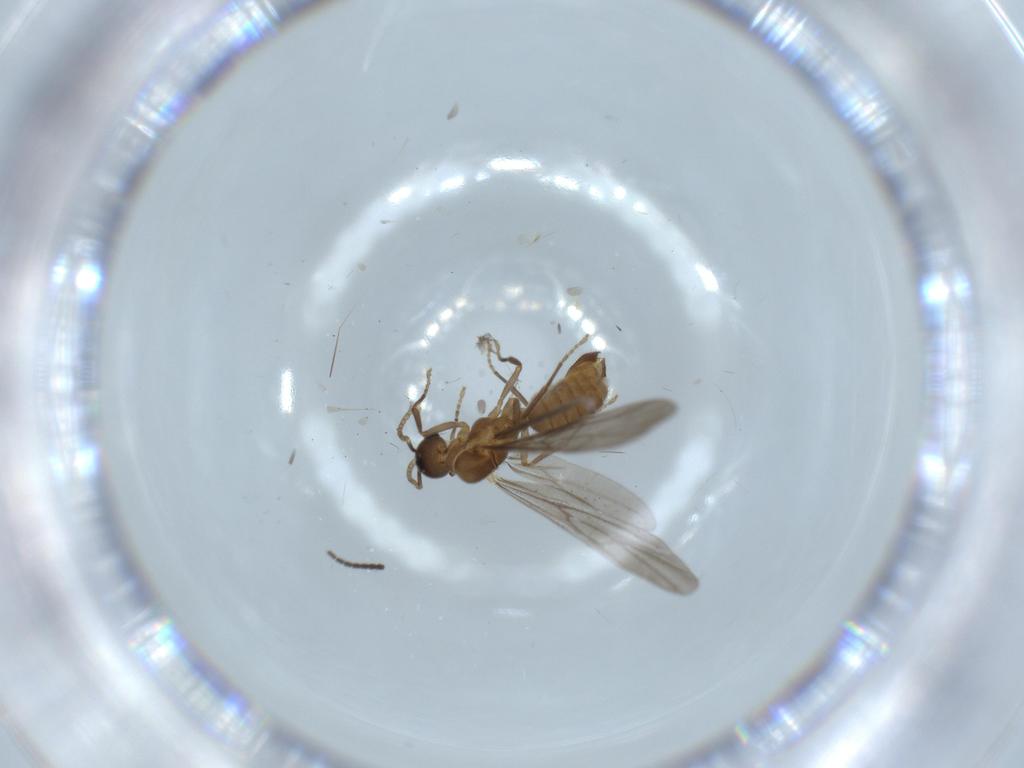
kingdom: Animalia
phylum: Arthropoda
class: Insecta
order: Hymenoptera
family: Formicidae
